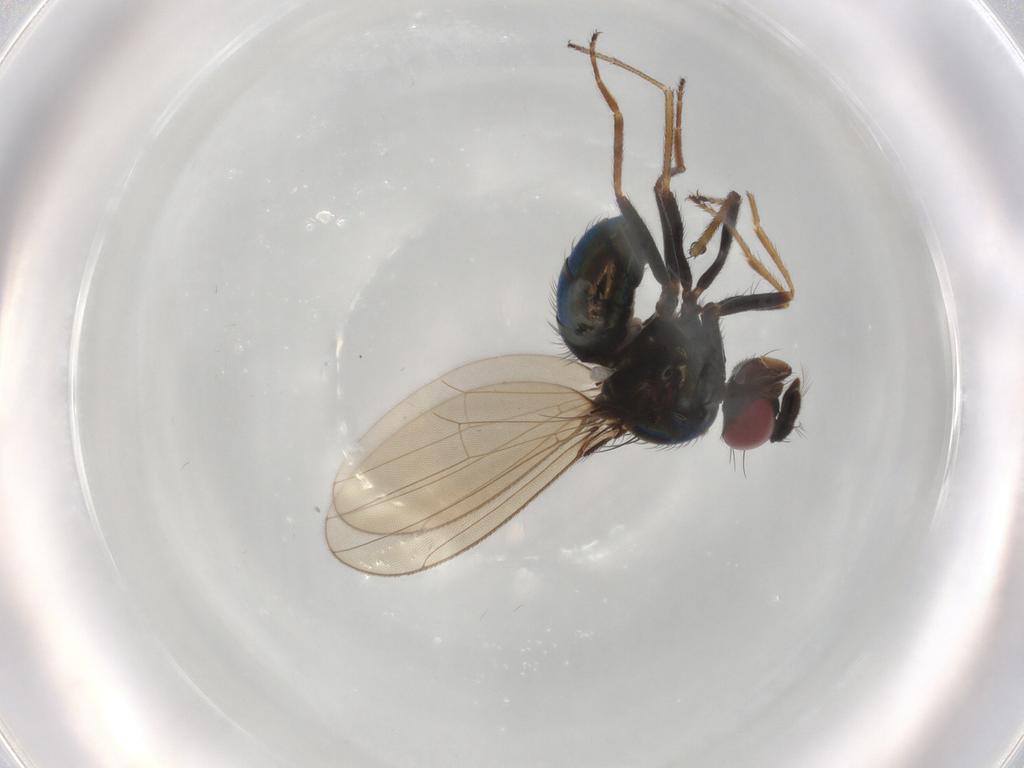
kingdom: Animalia
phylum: Arthropoda
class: Insecta
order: Diptera
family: Ephydridae
